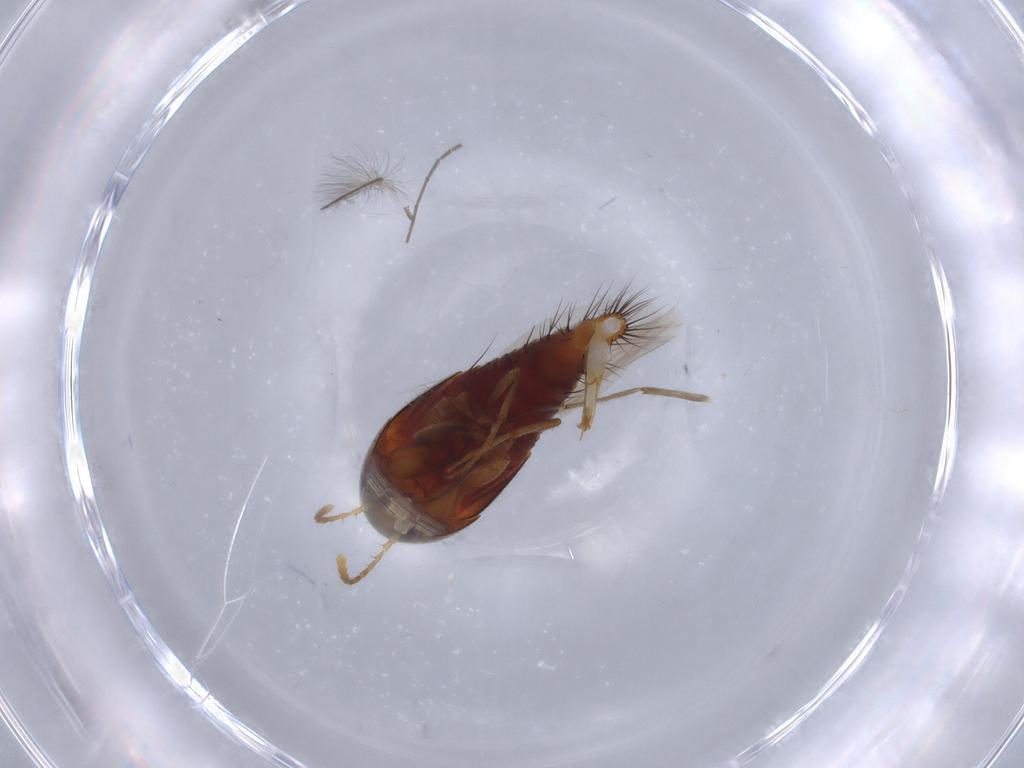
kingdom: Animalia
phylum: Arthropoda
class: Insecta
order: Coleoptera
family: Staphylinidae
